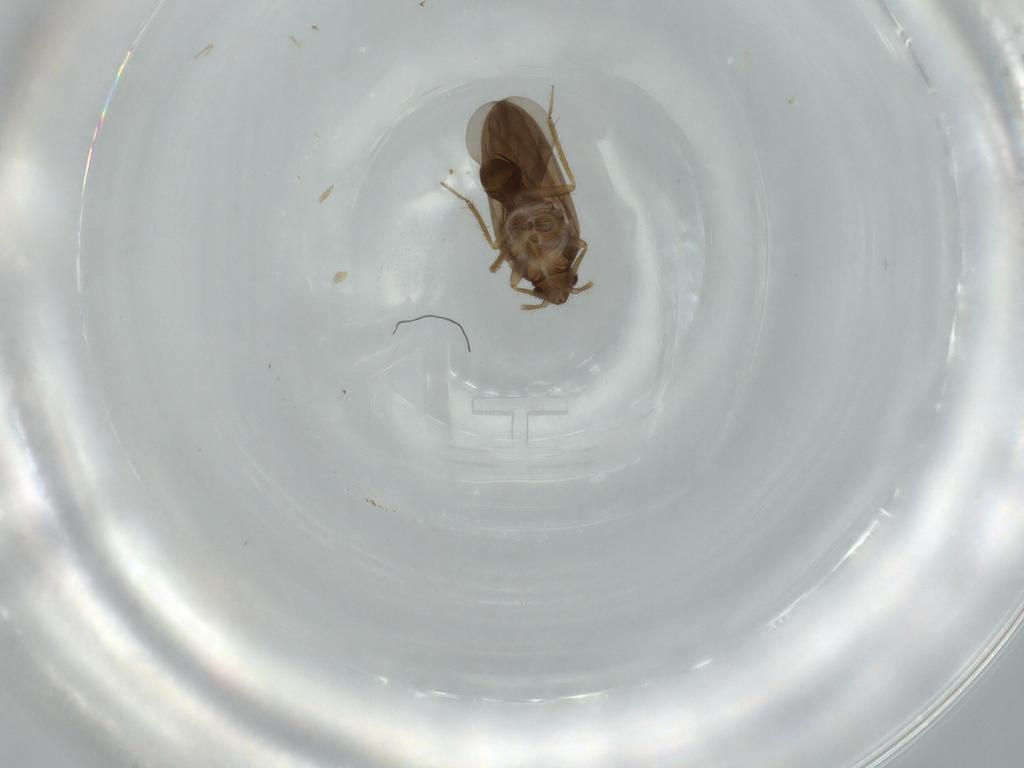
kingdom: Animalia
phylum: Arthropoda
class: Insecta
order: Hemiptera
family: Ceratocombidae
